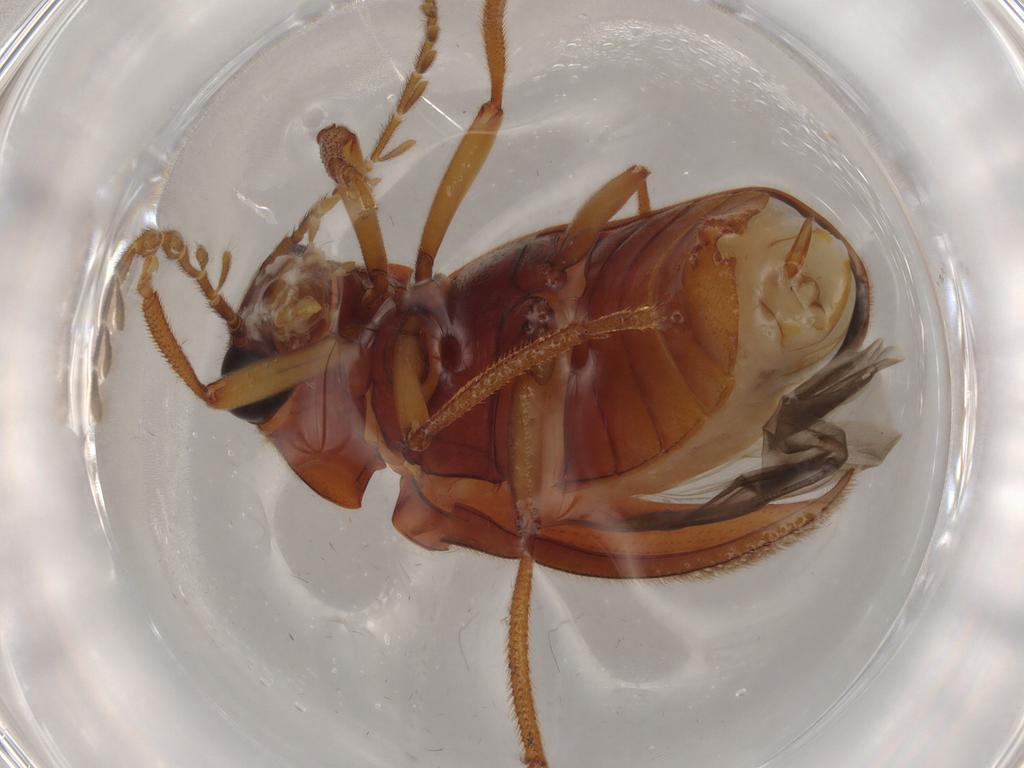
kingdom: Animalia
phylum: Arthropoda
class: Insecta
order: Coleoptera
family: Ptilodactylidae
